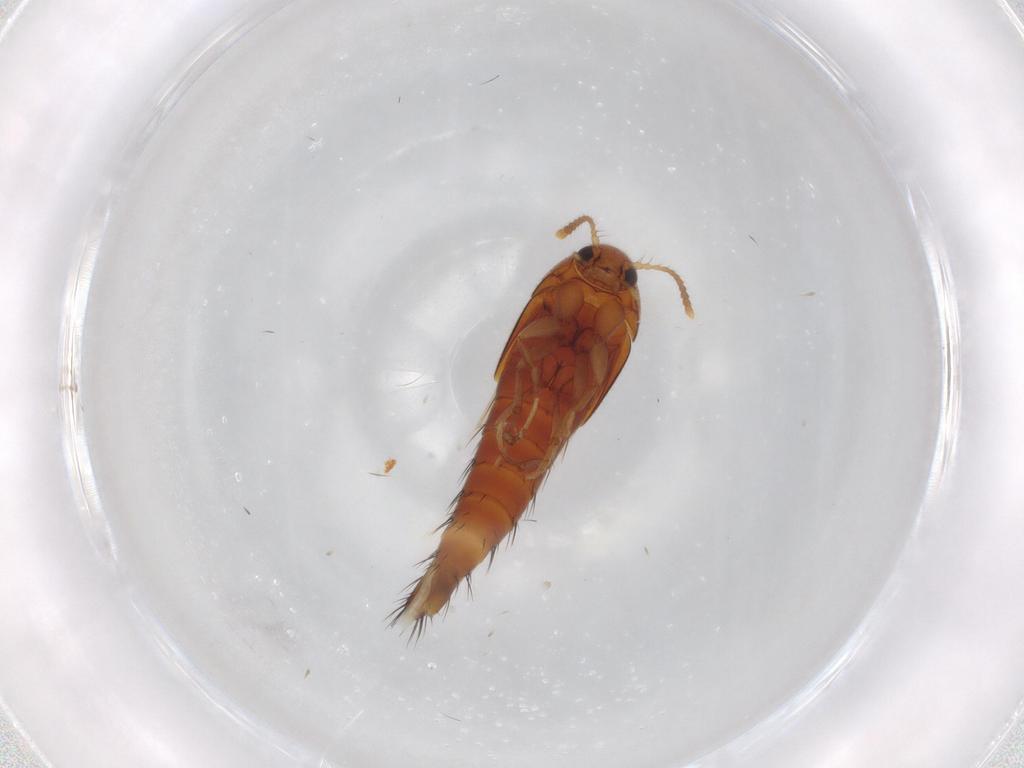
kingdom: Animalia
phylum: Arthropoda
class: Insecta
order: Coleoptera
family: Staphylinidae
